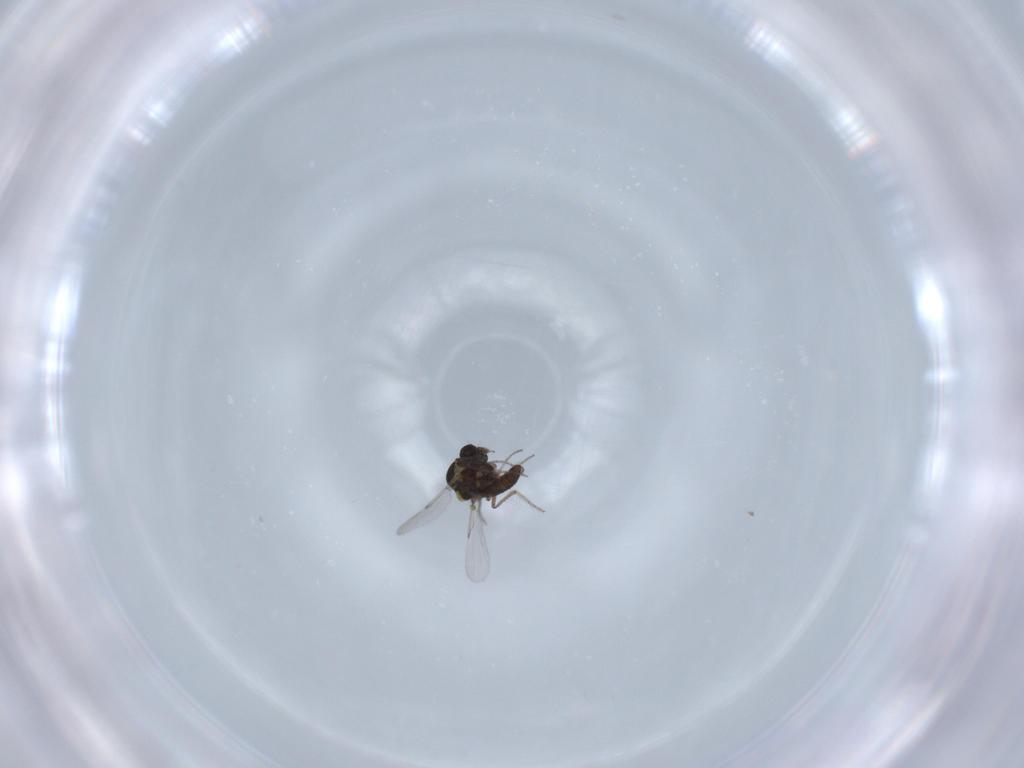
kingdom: Animalia
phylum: Arthropoda
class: Insecta
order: Diptera
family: Ceratopogonidae
